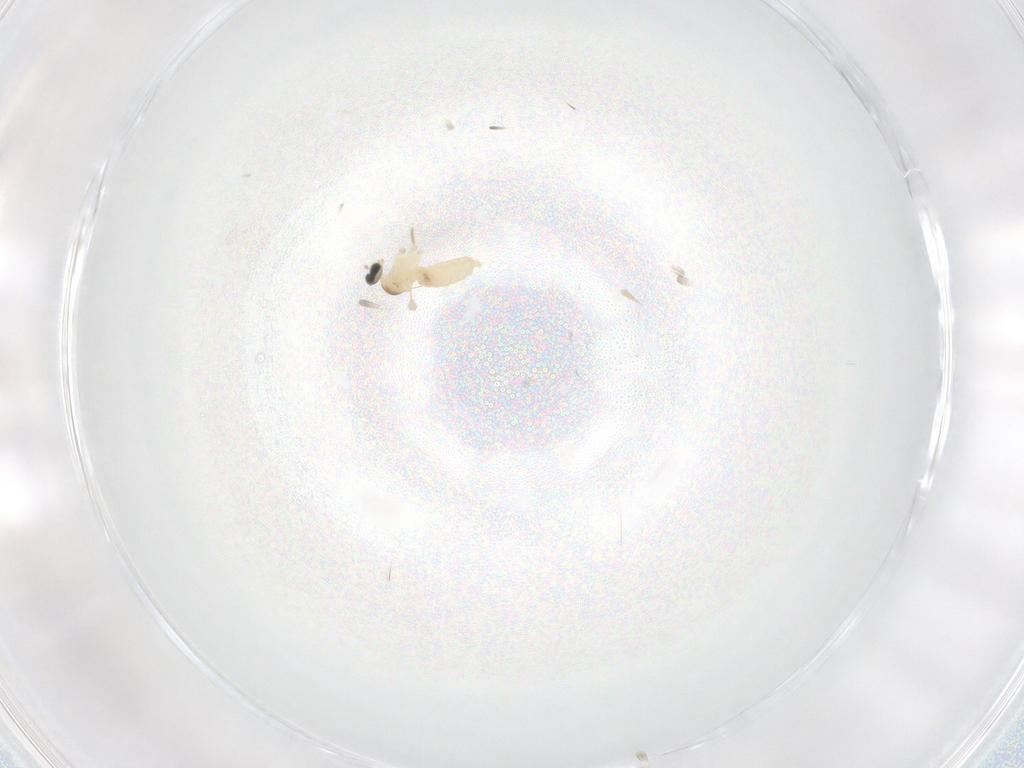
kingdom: Animalia
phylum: Arthropoda
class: Insecta
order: Diptera
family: Cecidomyiidae
